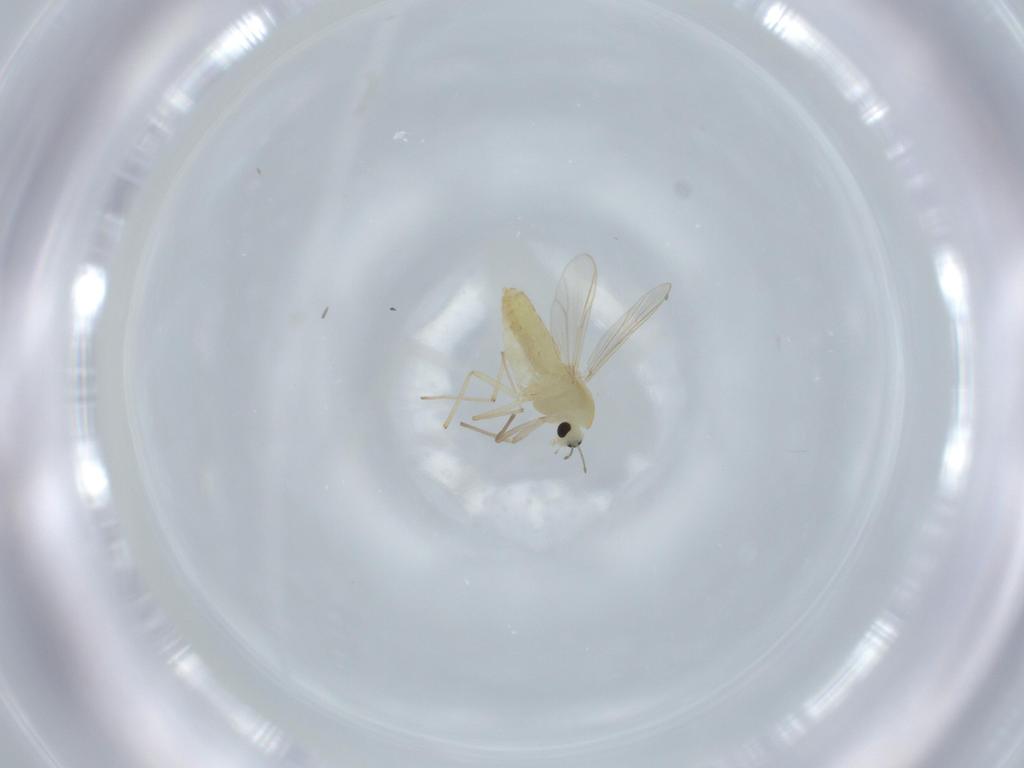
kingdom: Animalia
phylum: Arthropoda
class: Insecta
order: Diptera
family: Chironomidae
